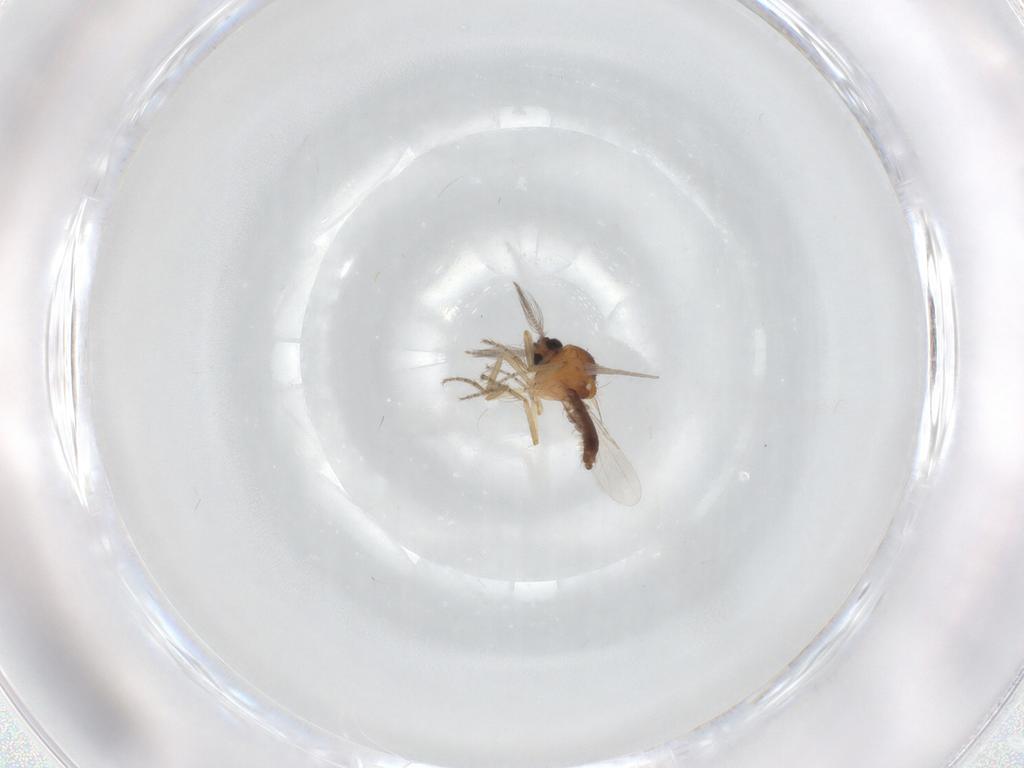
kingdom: Animalia
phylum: Arthropoda
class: Insecta
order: Diptera
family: Ceratopogonidae
